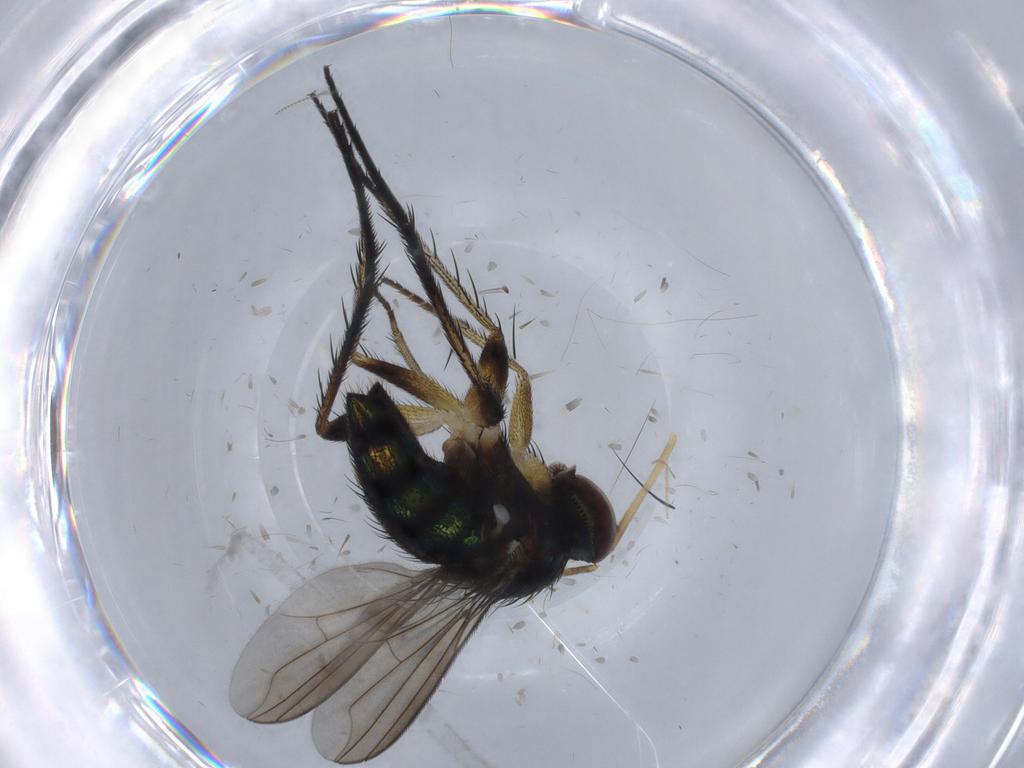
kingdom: Animalia
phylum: Arthropoda
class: Insecta
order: Diptera
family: Dolichopodidae
